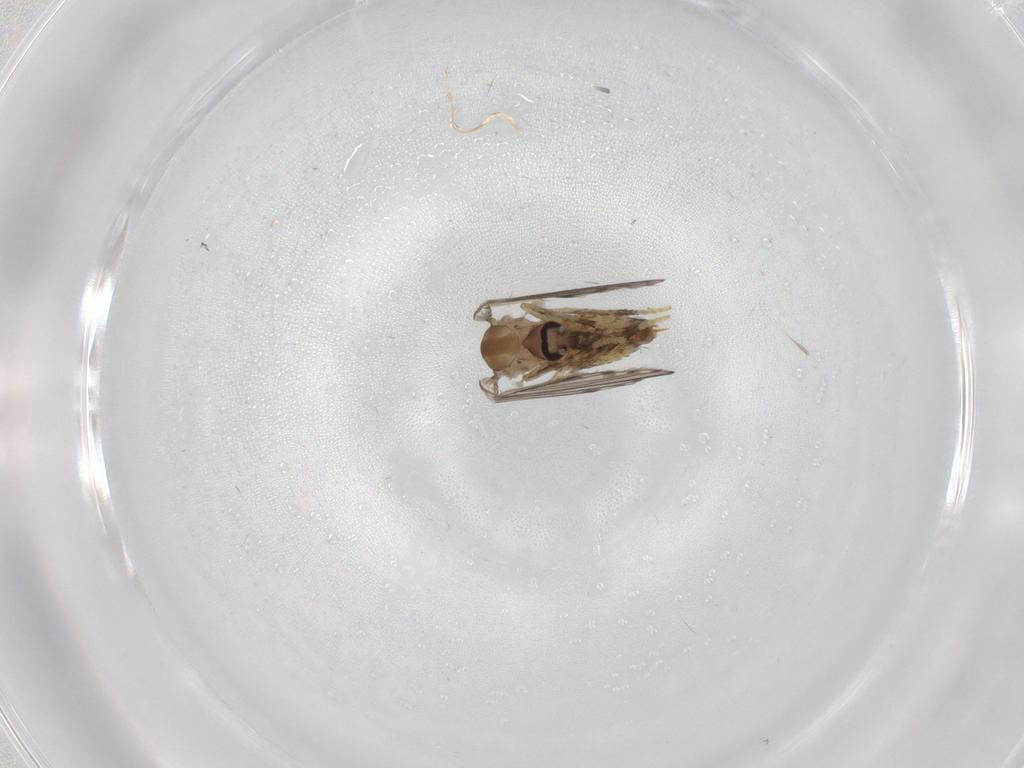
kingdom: Animalia
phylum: Arthropoda
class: Insecta
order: Diptera
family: Psychodidae
